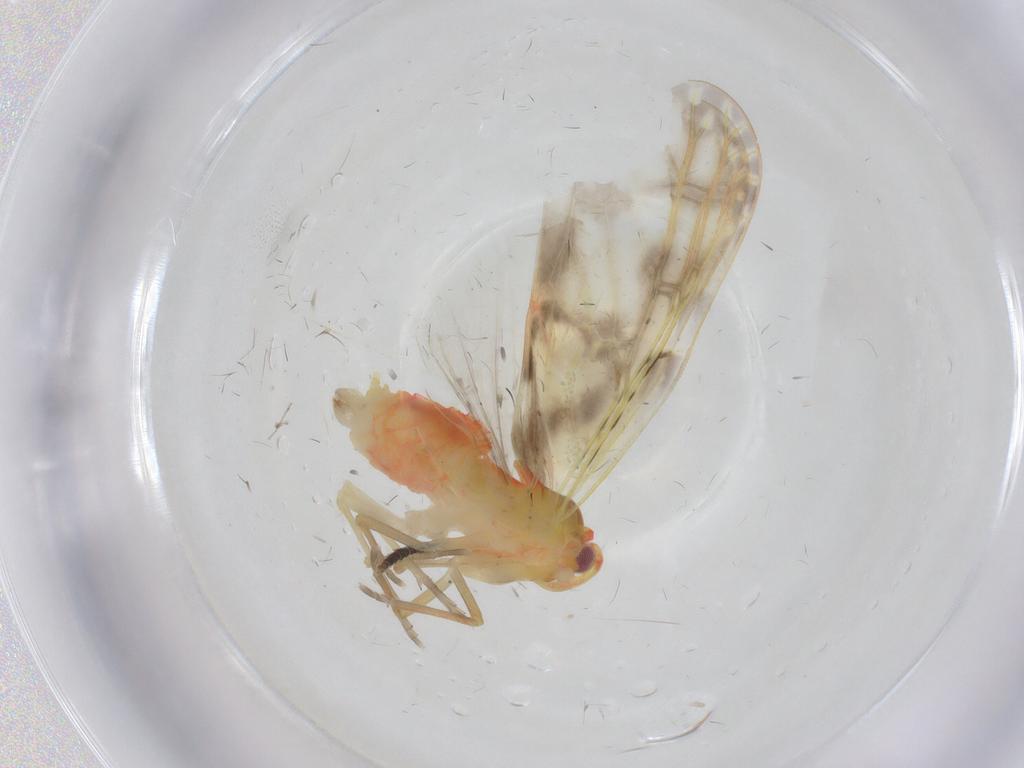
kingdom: Animalia
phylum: Arthropoda
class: Insecta
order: Hemiptera
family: Derbidae
